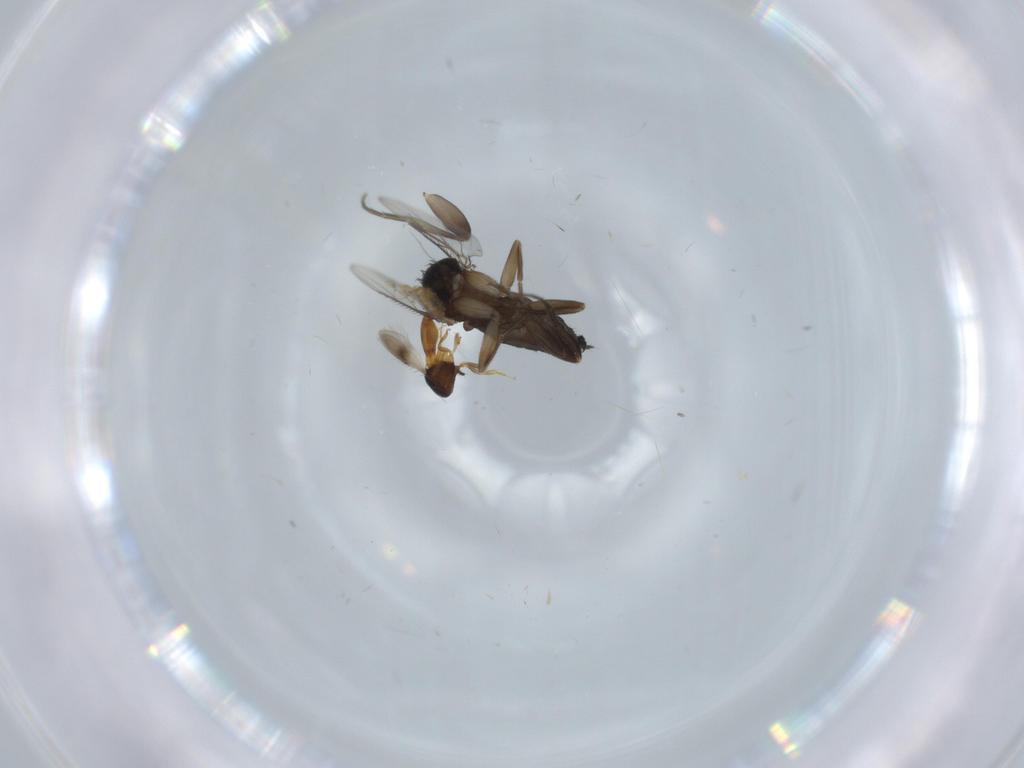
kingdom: Animalia
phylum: Arthropoda
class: Insecta
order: Diptera
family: Phoridae
